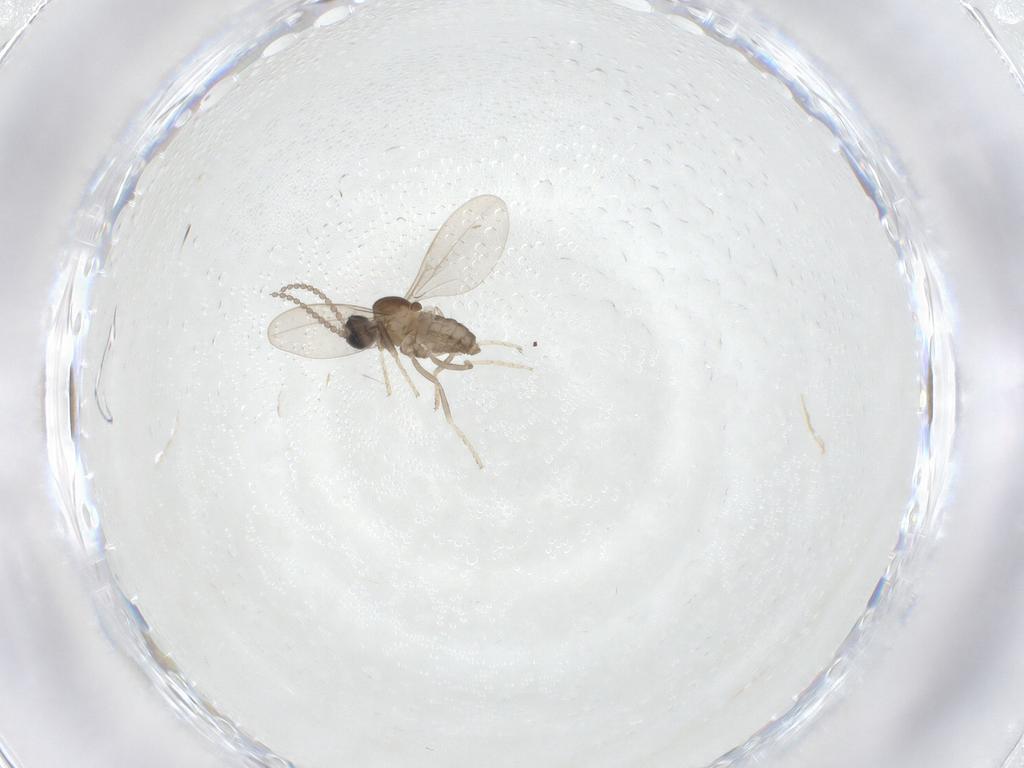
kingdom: Animalia
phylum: Arthropoda
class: Insecta
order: Diptera
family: Cecidomyiidae
